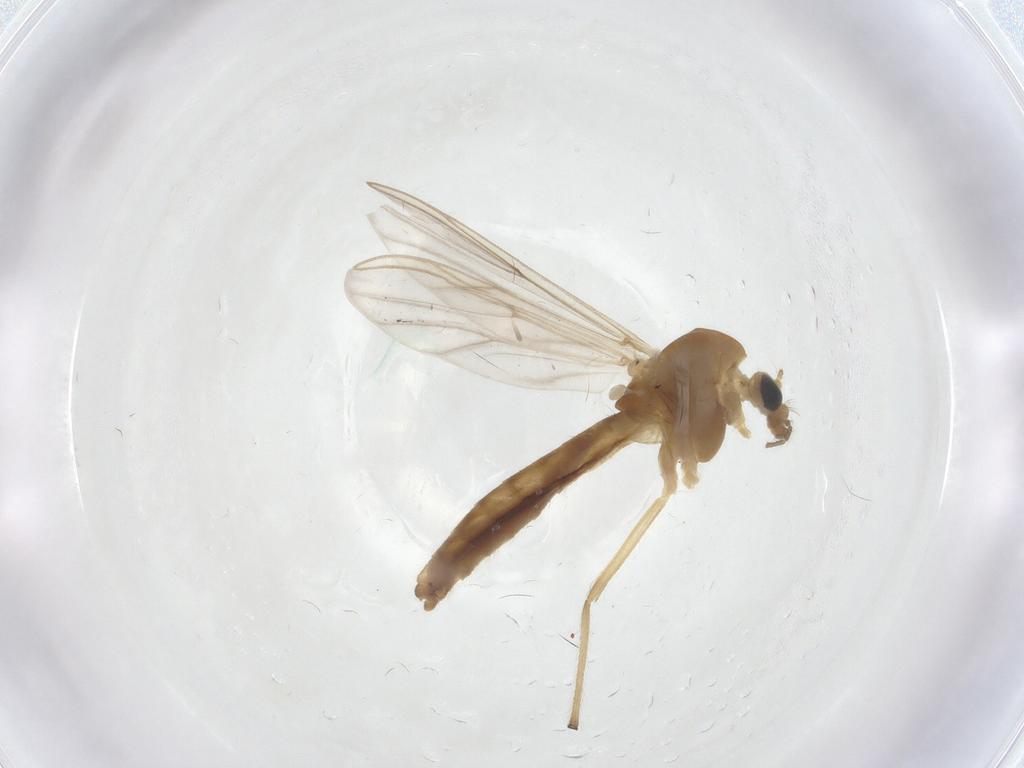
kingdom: Animalia
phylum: Arthropoda
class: Insecta
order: Diptera
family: Chironomidae
